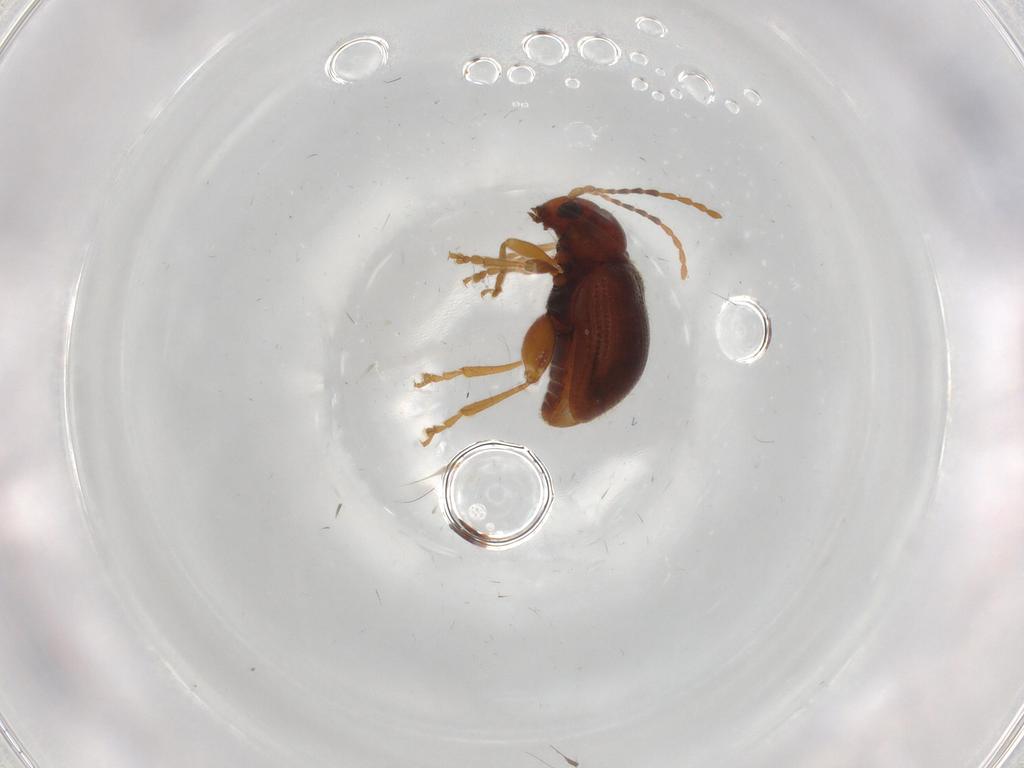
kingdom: Animalia
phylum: Arthropoda
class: Insecta
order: Coleoptera
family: Chrysomelidae
